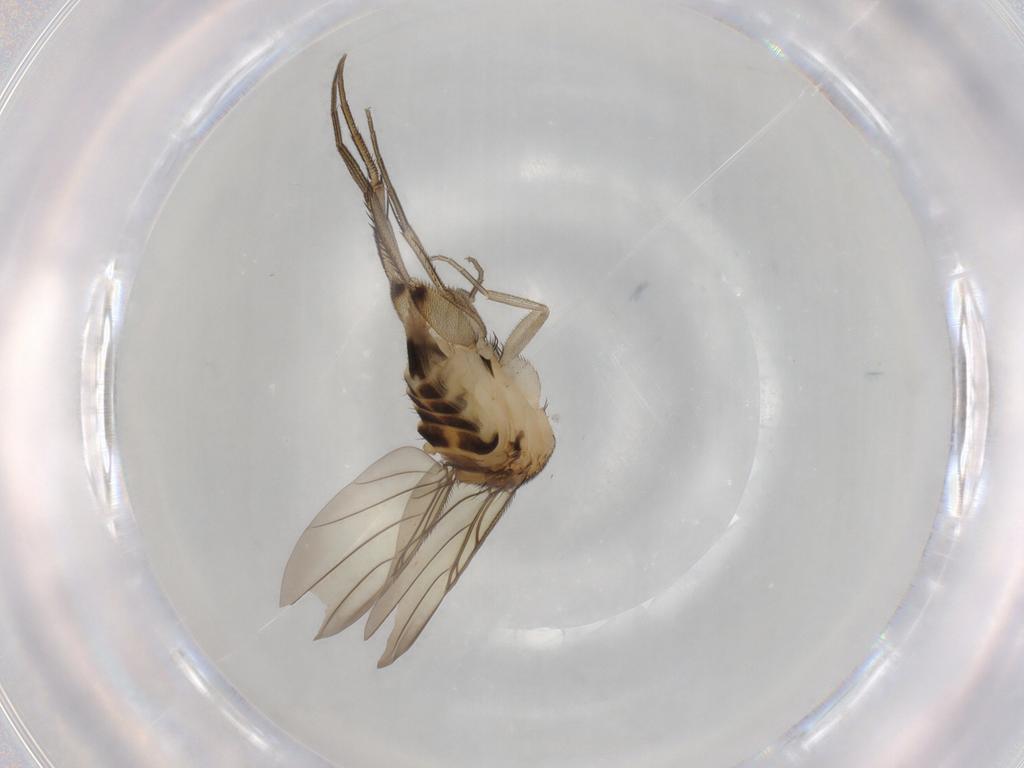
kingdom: Animalia
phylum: Arthropoda
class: Insecta
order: Diptera
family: Phoridae
